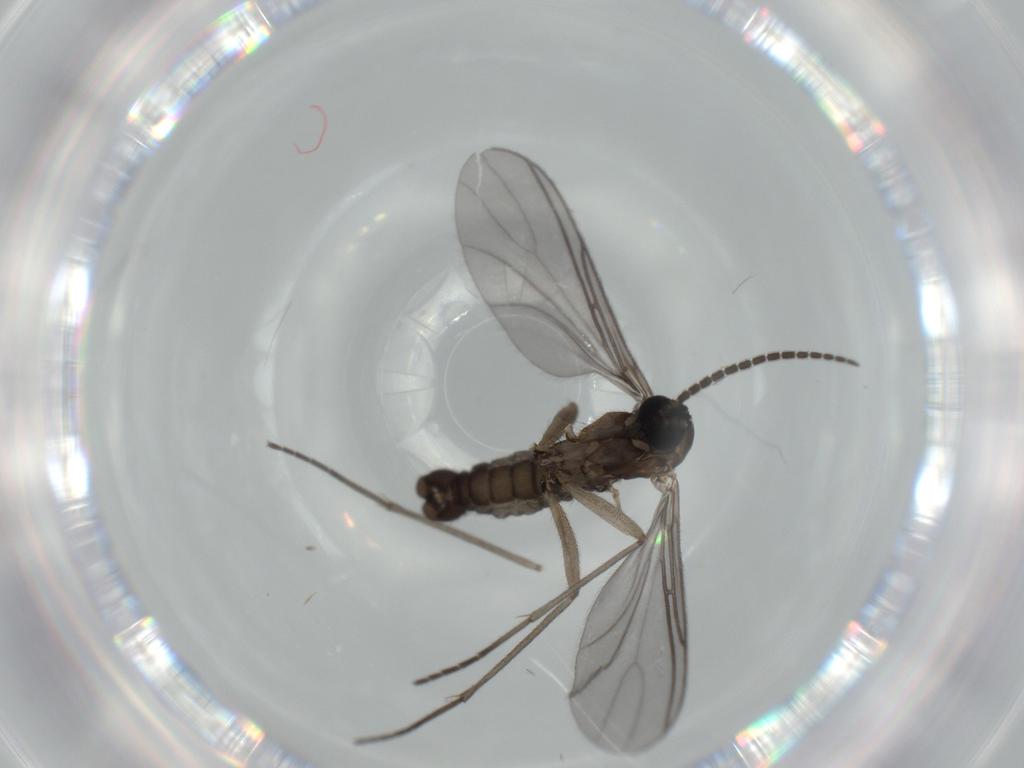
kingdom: Animalia
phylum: Arthropoda
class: Insecta
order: Diptera
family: Sciaridae
